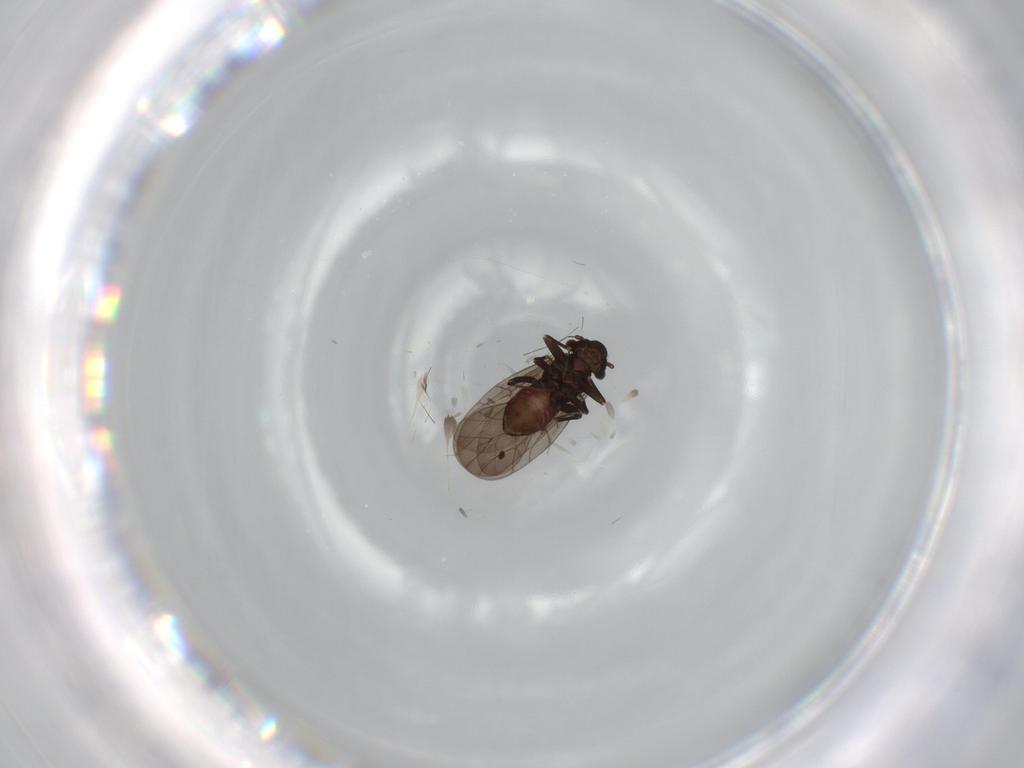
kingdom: Animalia
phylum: Arthropoda
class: Insecta
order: Psocodea
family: Lepidopsocidae
